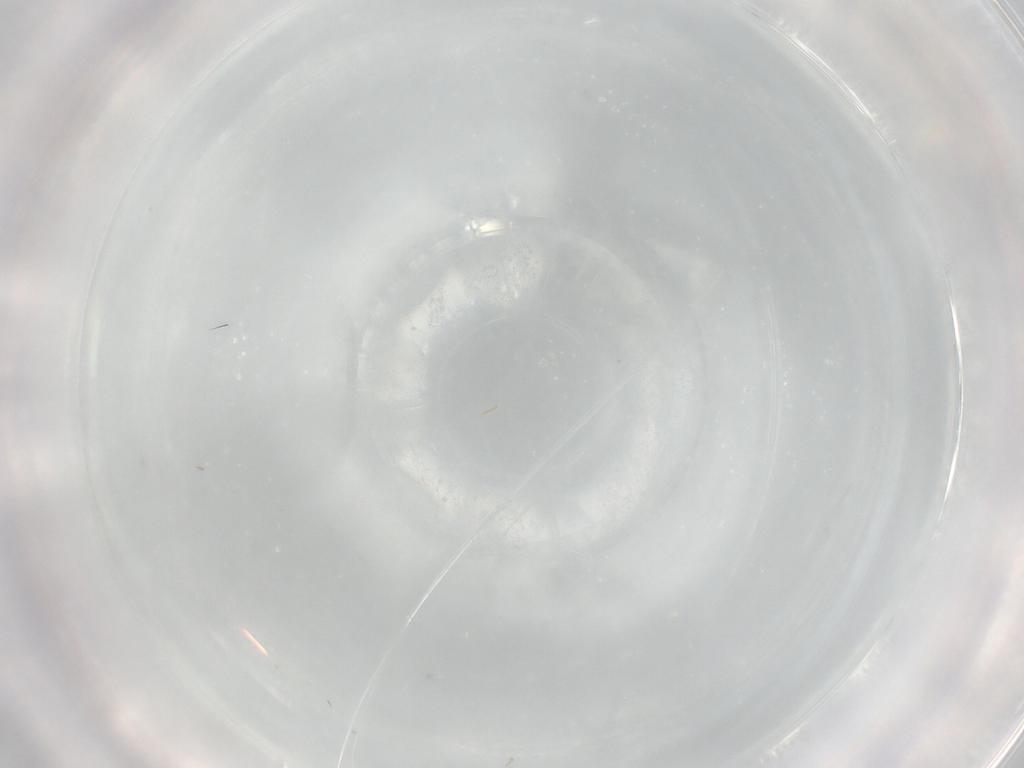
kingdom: Animalia
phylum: Arthropoda
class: Collembola
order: Entomobryomorpha
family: Entomobryidae
